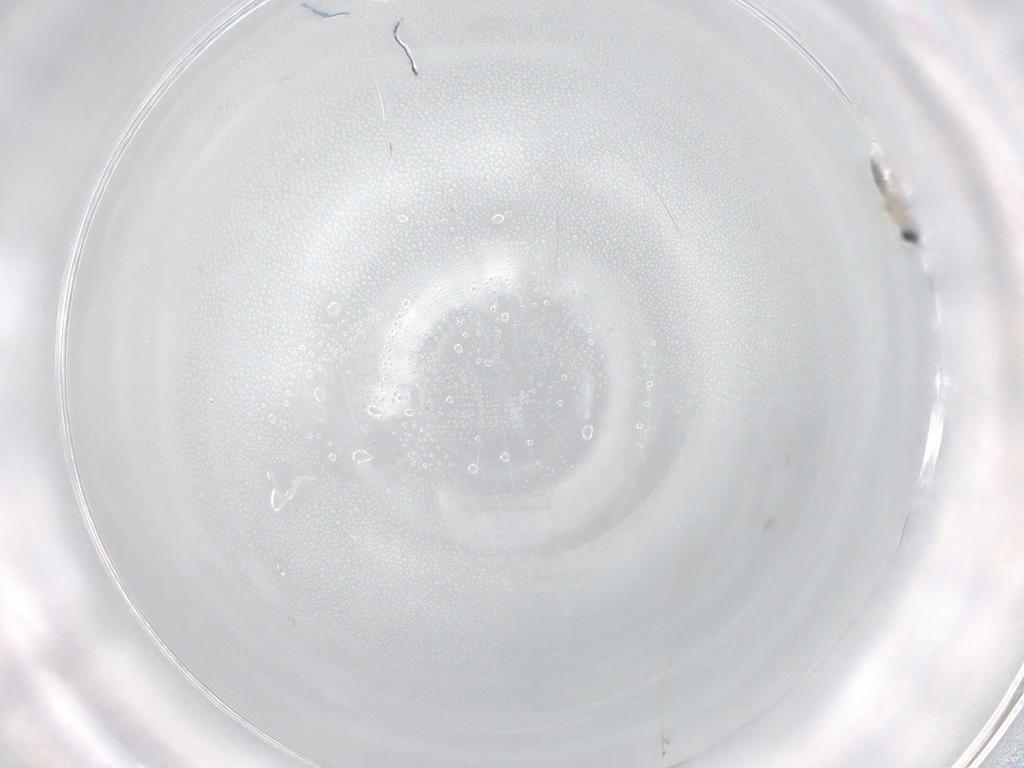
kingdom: Animalia
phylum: Arthropoda
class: Insecta
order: Diptera
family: Cecidomyiidae
